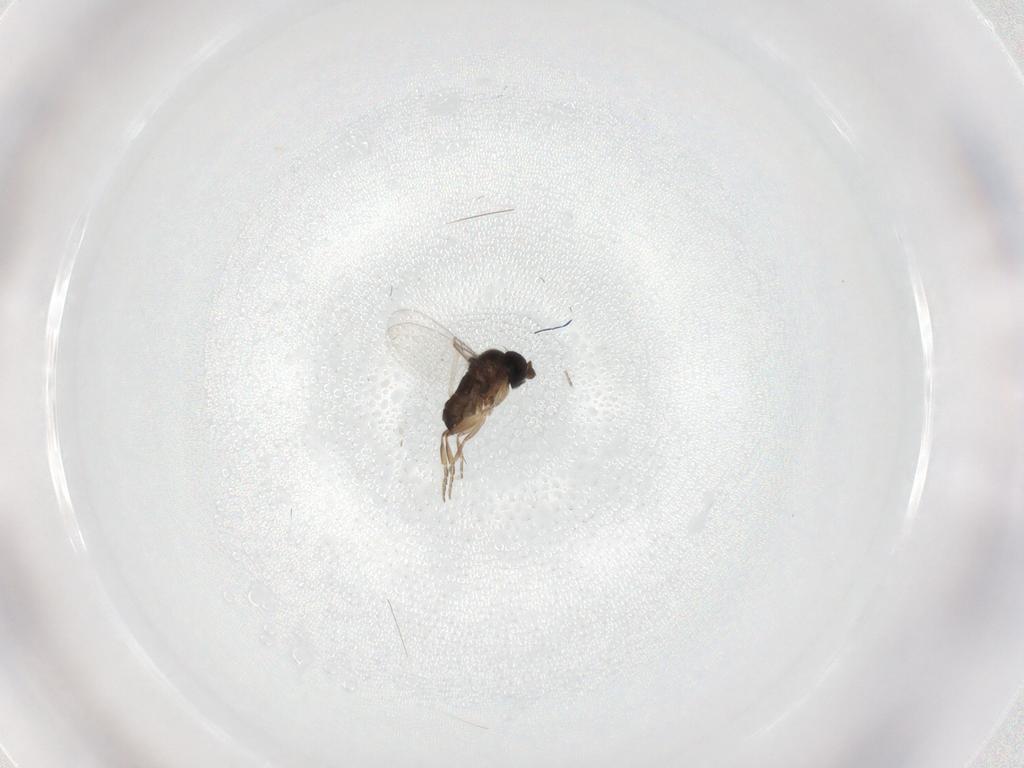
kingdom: Animalia
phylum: Arthropoda
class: Insecta
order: Diptera
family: Phoridae
